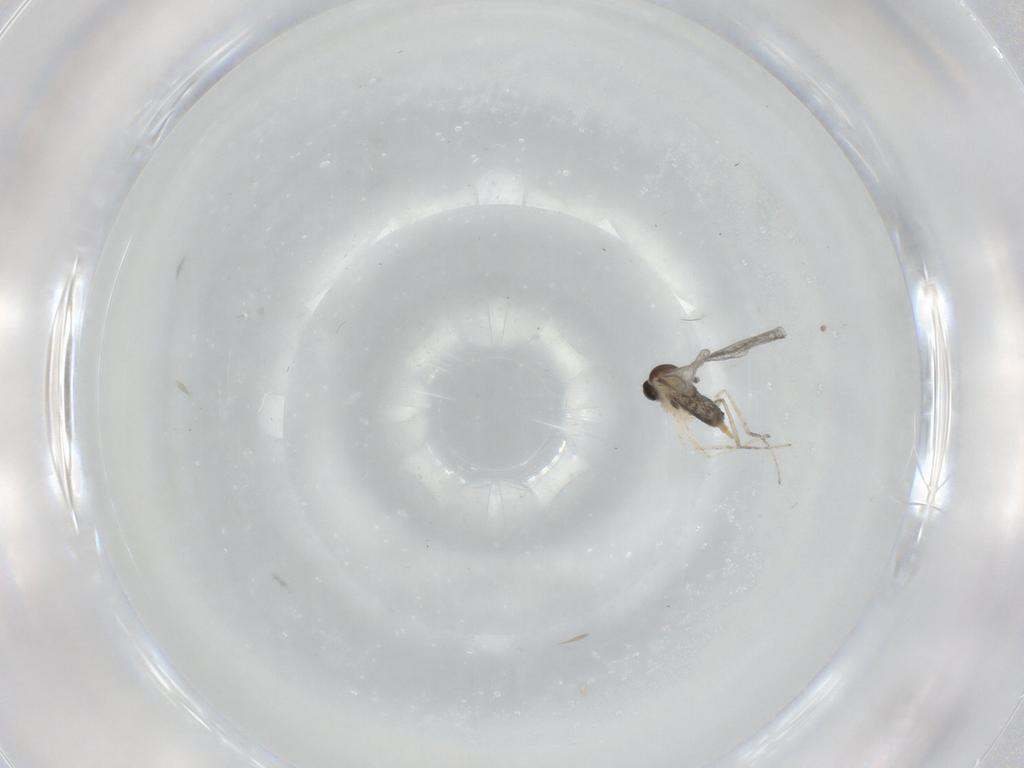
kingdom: Animalia
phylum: Arthropoda
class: Insecta
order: Diptera
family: Cecidomyiidae
